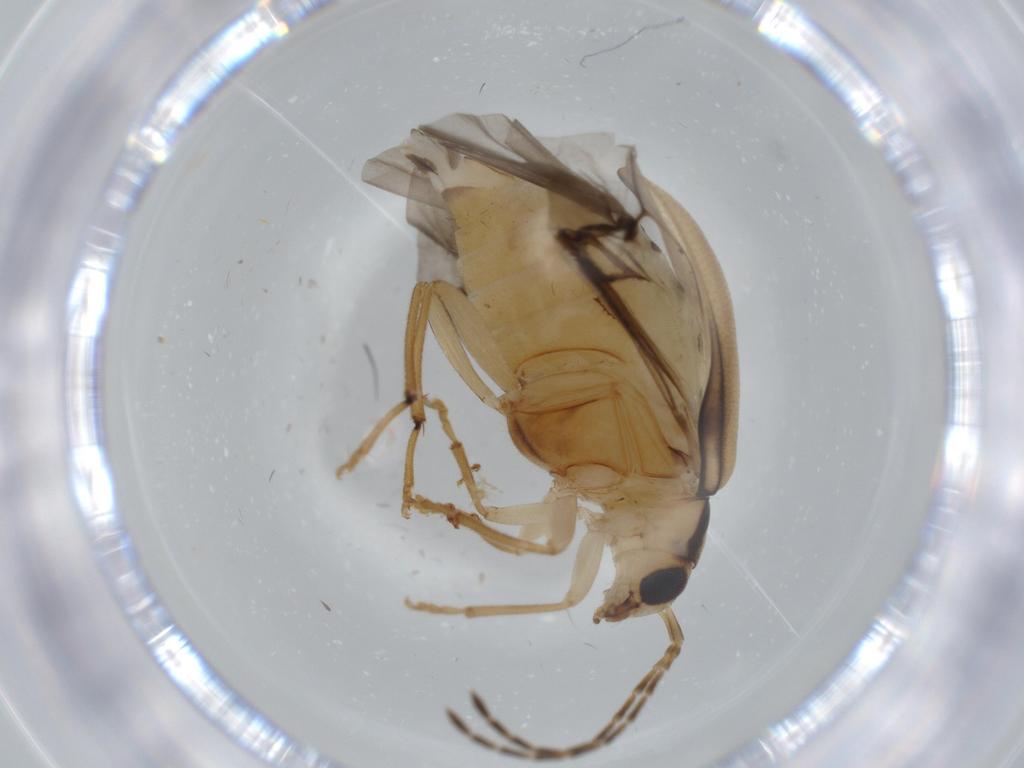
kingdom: Animalia
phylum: Arthropoda
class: Insecta
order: Coleoptera
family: Chrysomelidae
